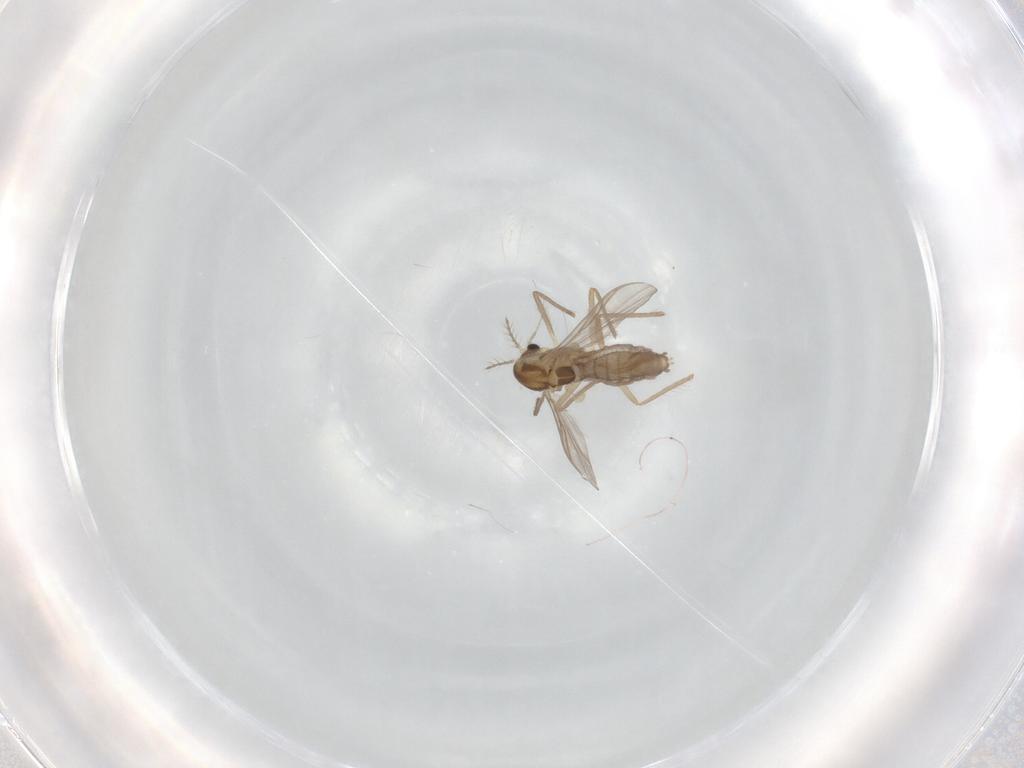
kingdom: Animalia
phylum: Arthropoda
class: Insecta
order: Diptera
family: Chironomidae
